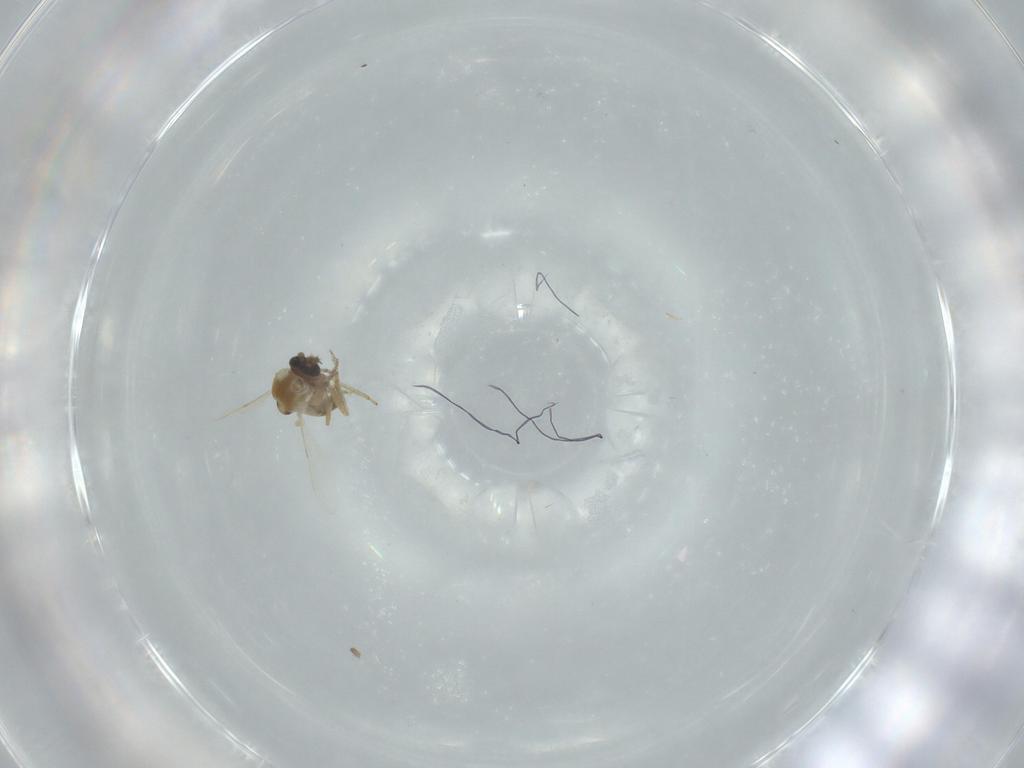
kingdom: Animalia
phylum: Arthropoda
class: Insecta
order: Diptera
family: Ceratopogonidae
